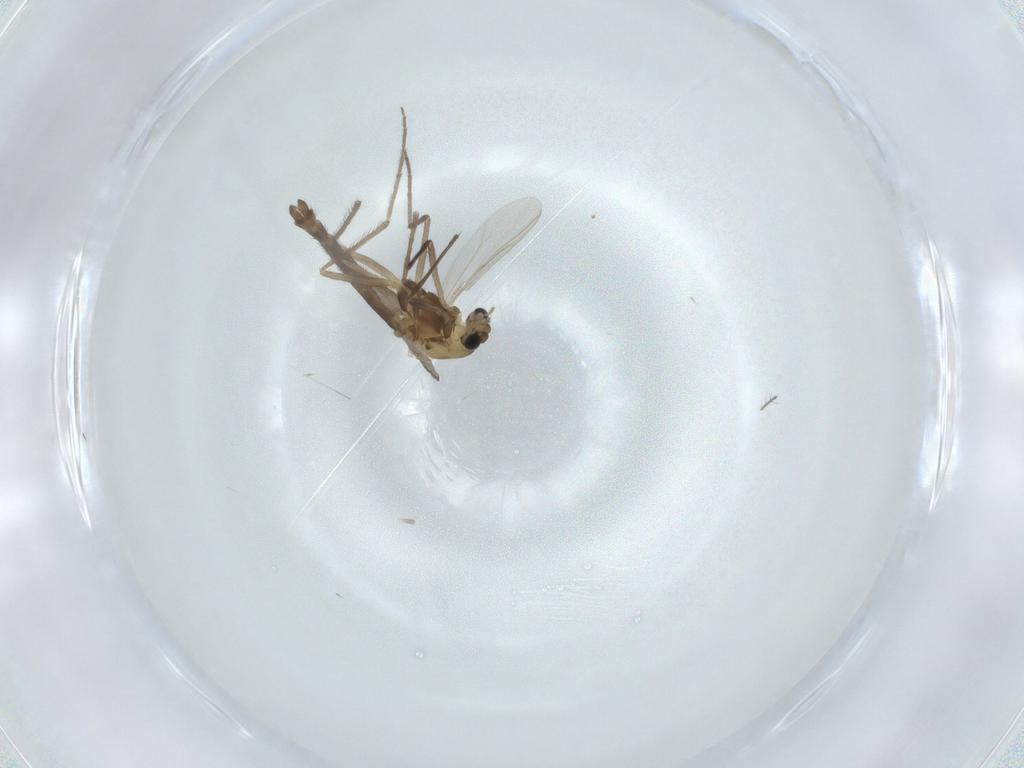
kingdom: Animalia
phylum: Arthropoda
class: Insecta
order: Diptera
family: Chironomidae
